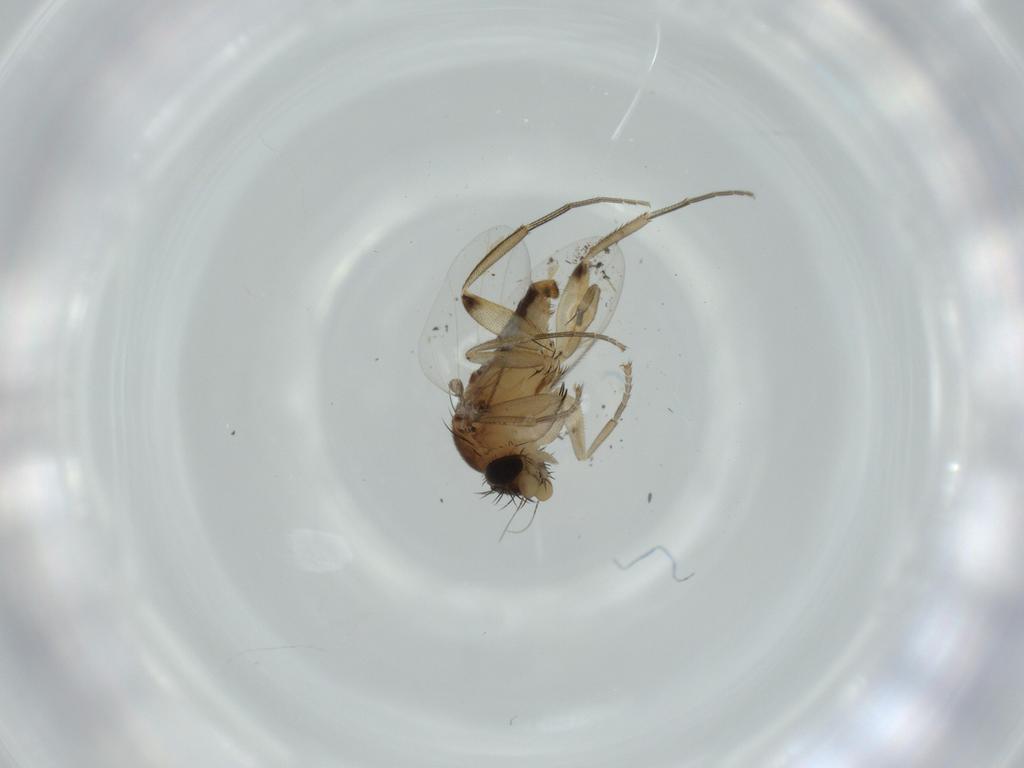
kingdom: Animalia
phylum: Arthropoda
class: Insecta
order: Diptera
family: Phoridae
